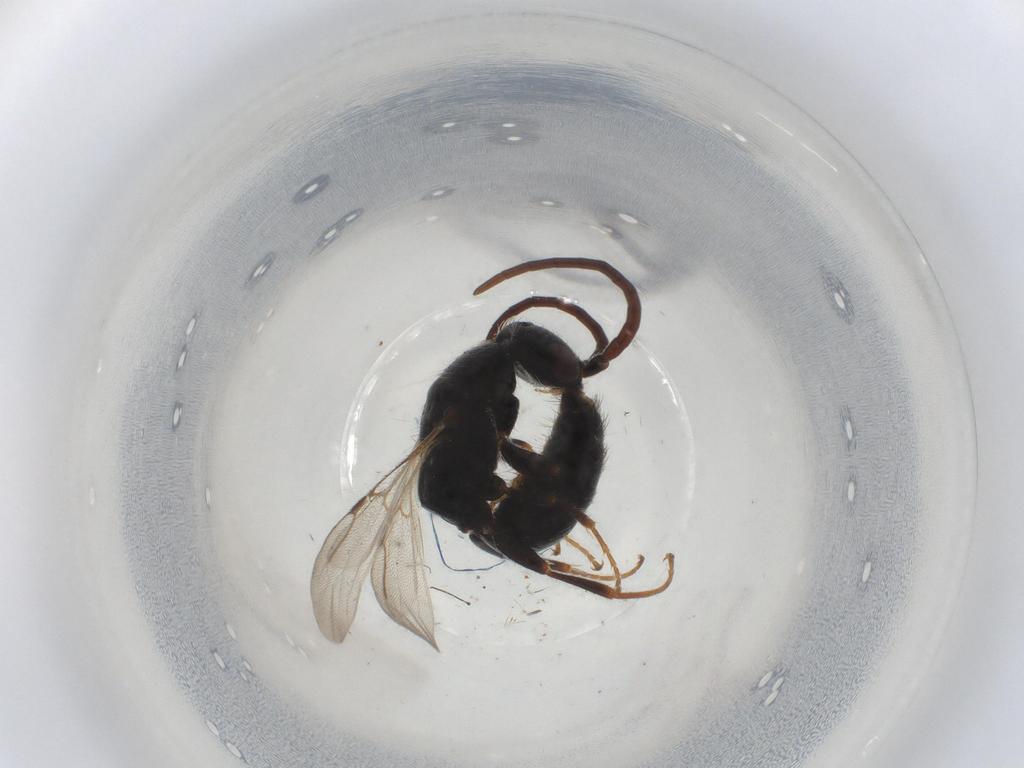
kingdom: Animalia
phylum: Arthropoda
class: Insecta
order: Hymenoptera
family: Bethylidae
